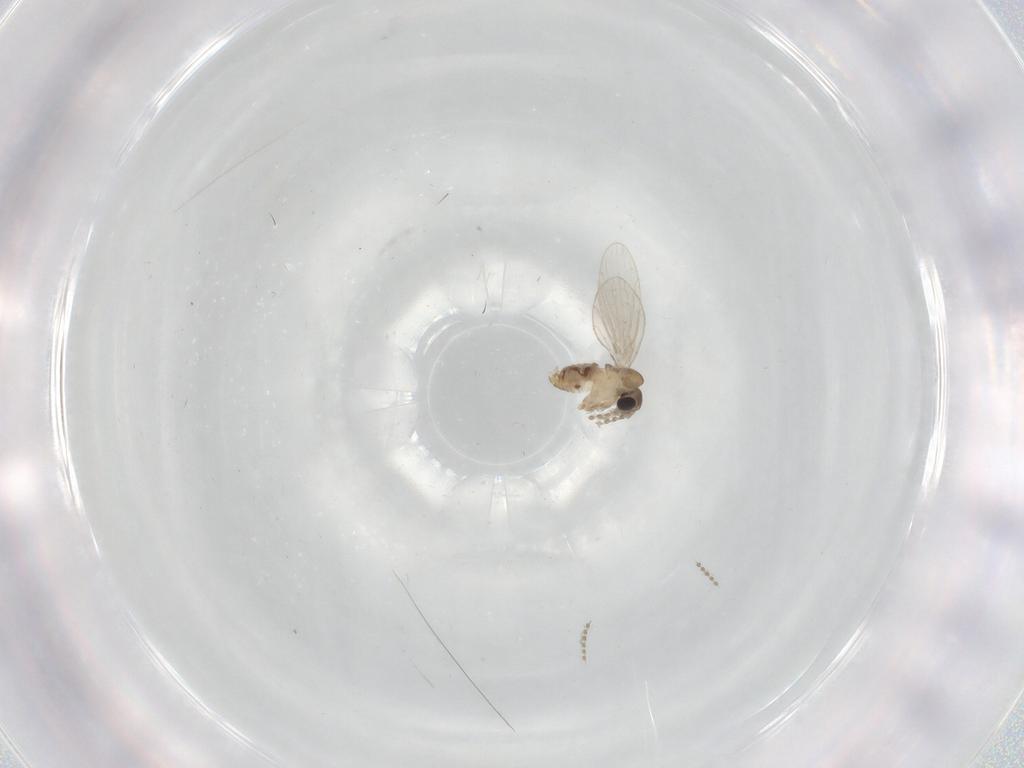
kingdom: Animalia
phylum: Arthropoda
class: Insecta
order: Diptera
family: Psychodidae
